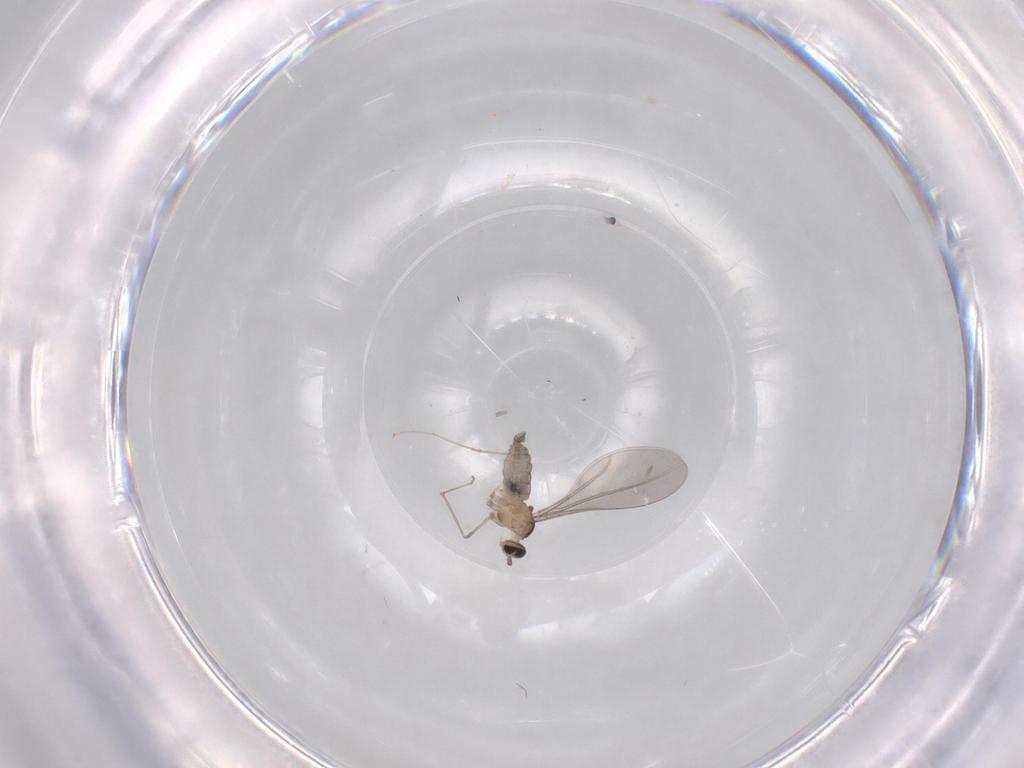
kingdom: Animalia
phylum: Arthropoda
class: Insecta
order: Diptera
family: Cecidomyiidae
